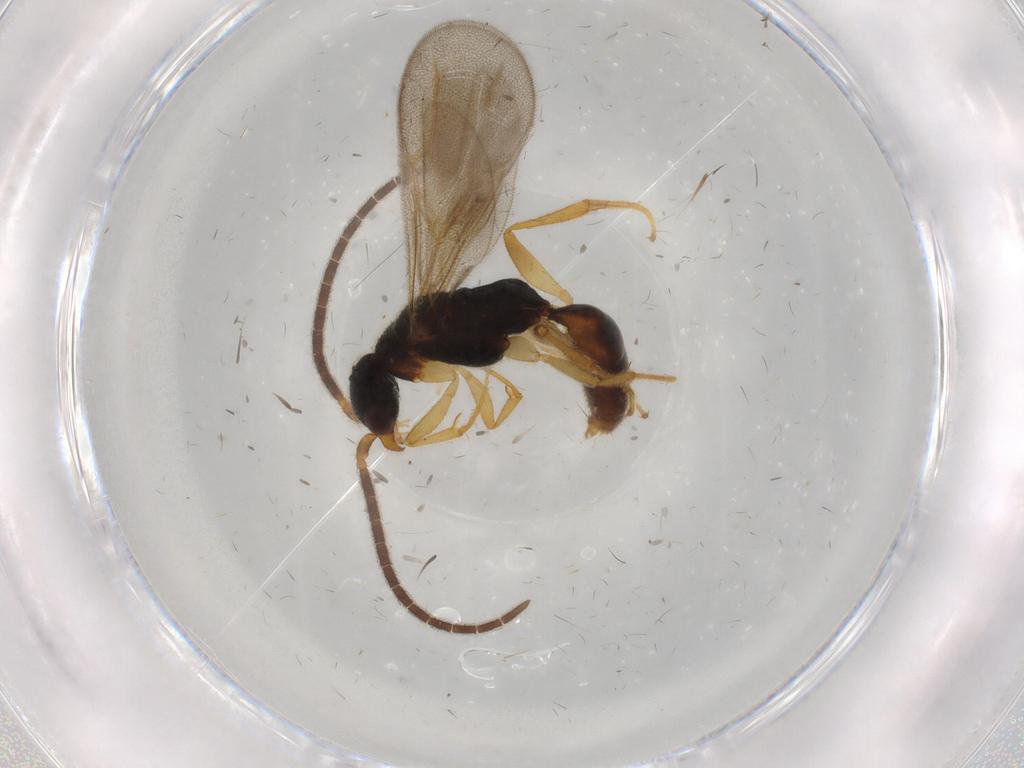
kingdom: Animalia
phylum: Arthropoda
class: Insecta
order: Hymenoptera
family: Bethylidae
